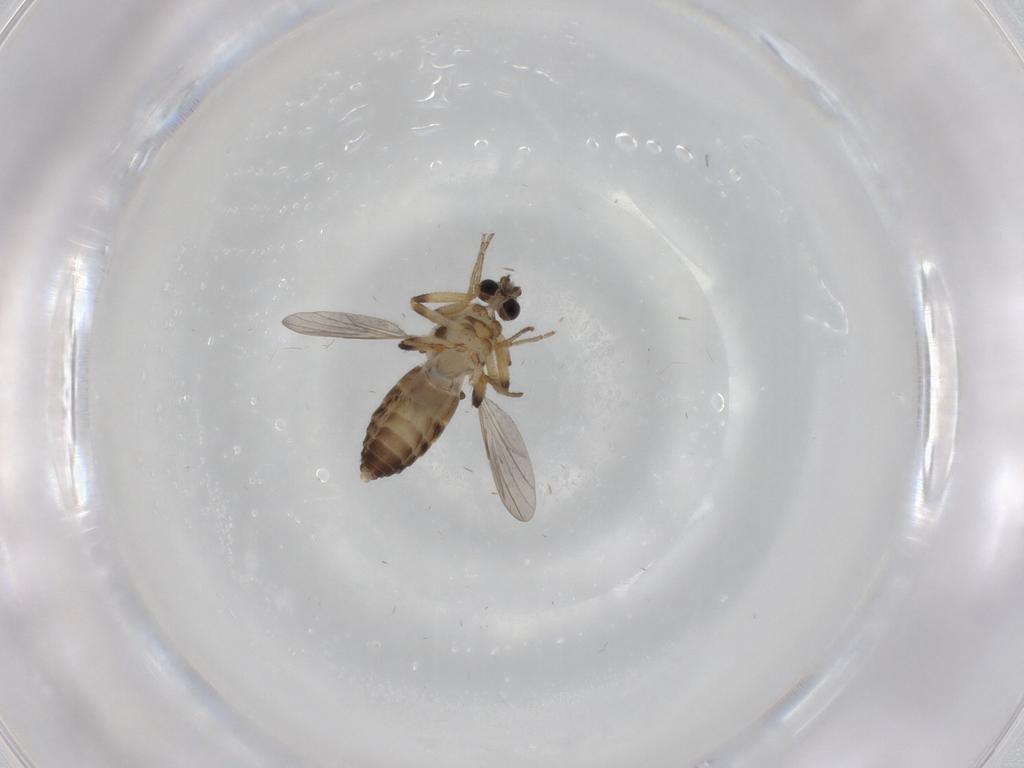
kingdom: Animalia
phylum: Arthropoda
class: Insecta
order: Diptera
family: Ceratopogonidae
